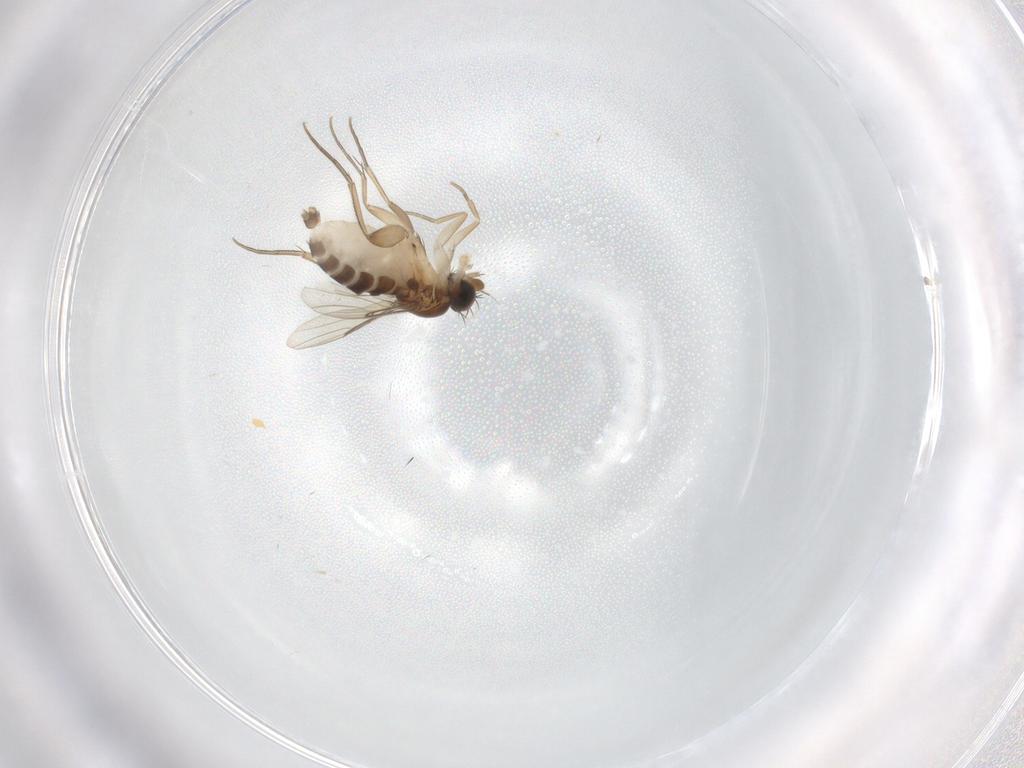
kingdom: Animalia
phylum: Arthropoda
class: Insecta
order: Diptera
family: Phoridae
